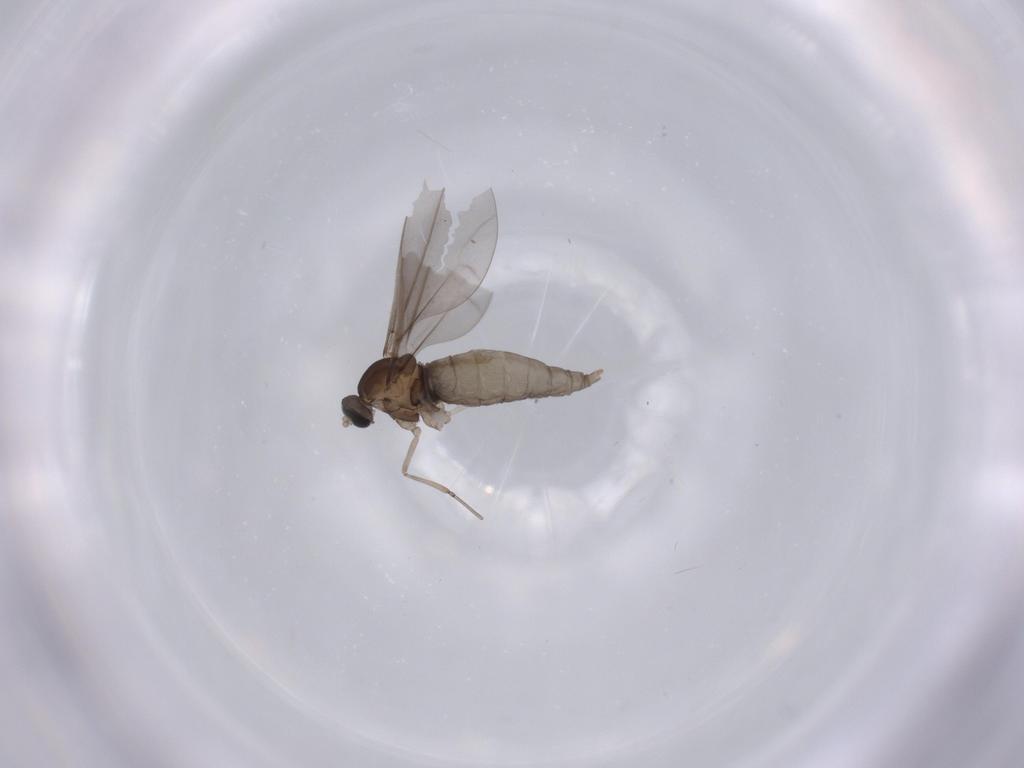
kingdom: Animalia
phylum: Arthropoda
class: Insecta
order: Diptera
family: Cecidomyiidae
